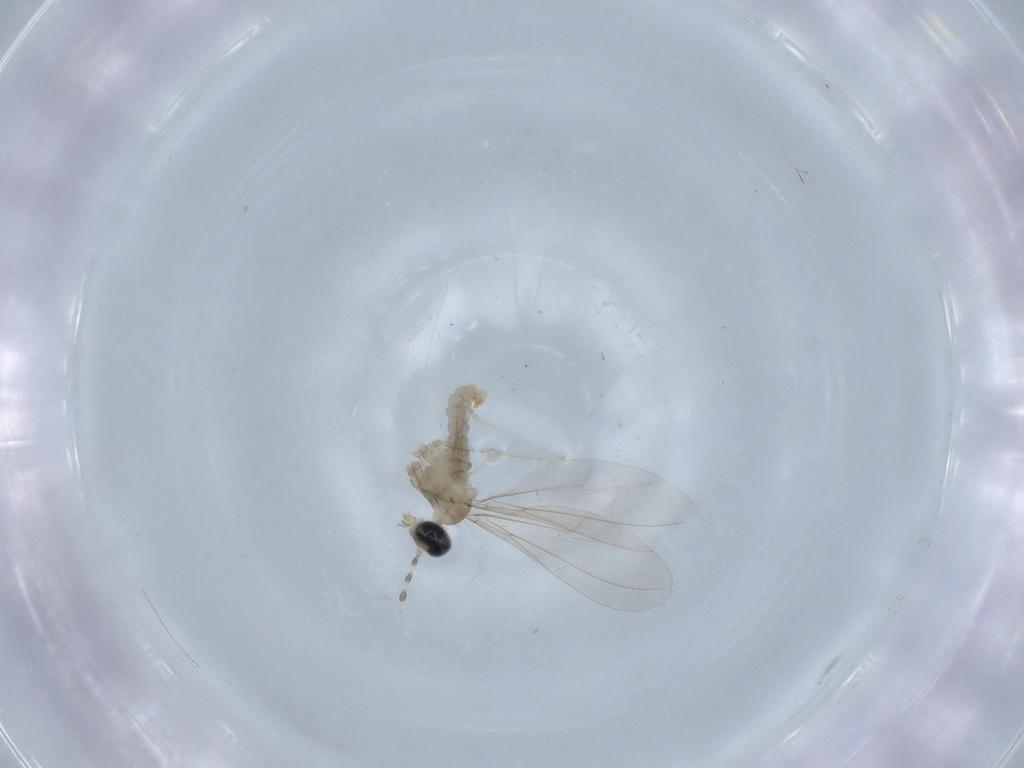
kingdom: Animalia
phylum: Arthropoda
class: Insecta
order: Diptera
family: Chironomidae
